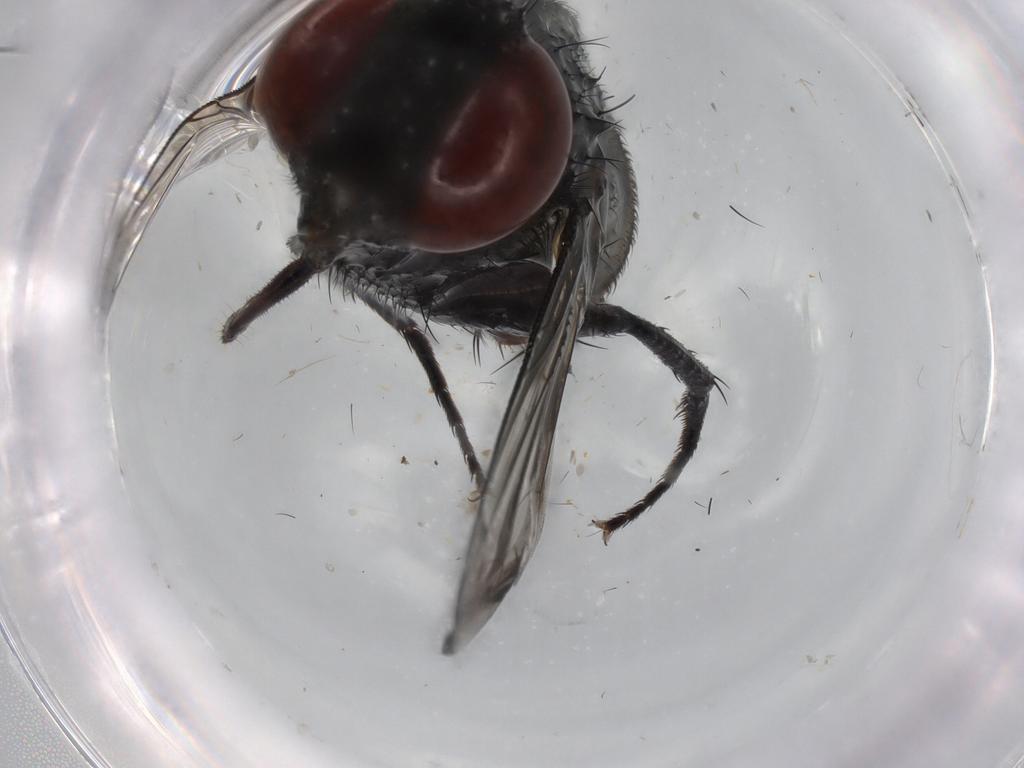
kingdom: Animalia
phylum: Arthropoda
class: Insecta
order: Diptera
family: Sarcophagidae
